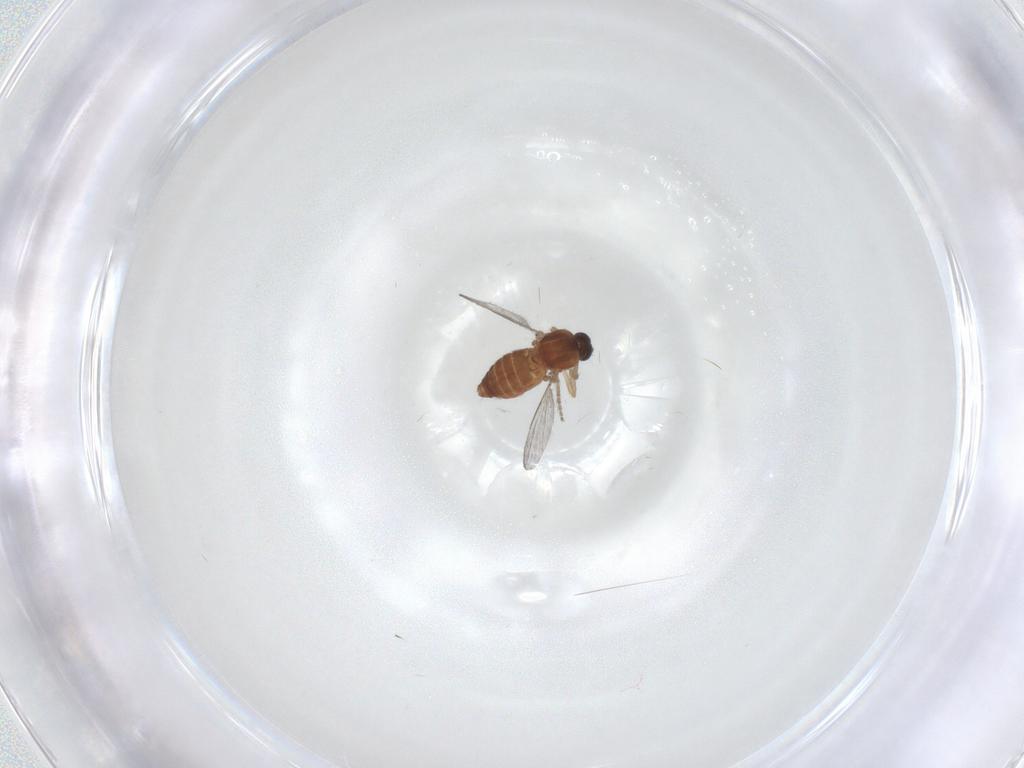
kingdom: Animalia
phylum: Arthropoda
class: Insecta
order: Diptera
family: Ceratopogonidae
